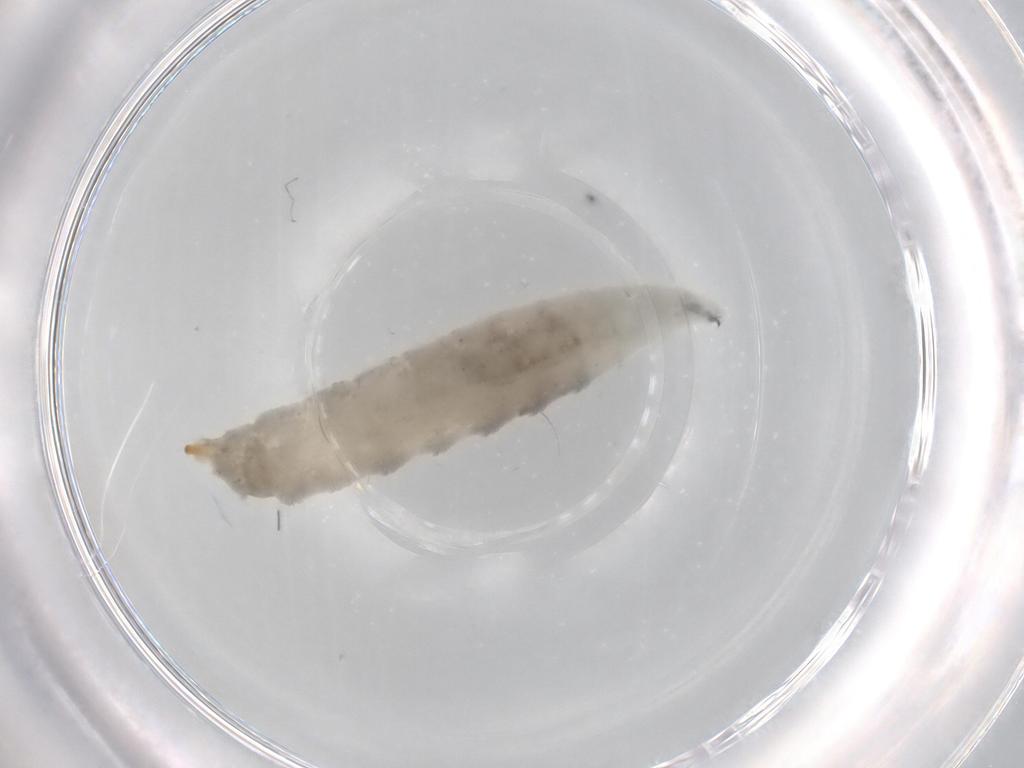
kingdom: Animalia
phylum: Arthropoda
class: Insecta
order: Diptera
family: Drosophilidae
